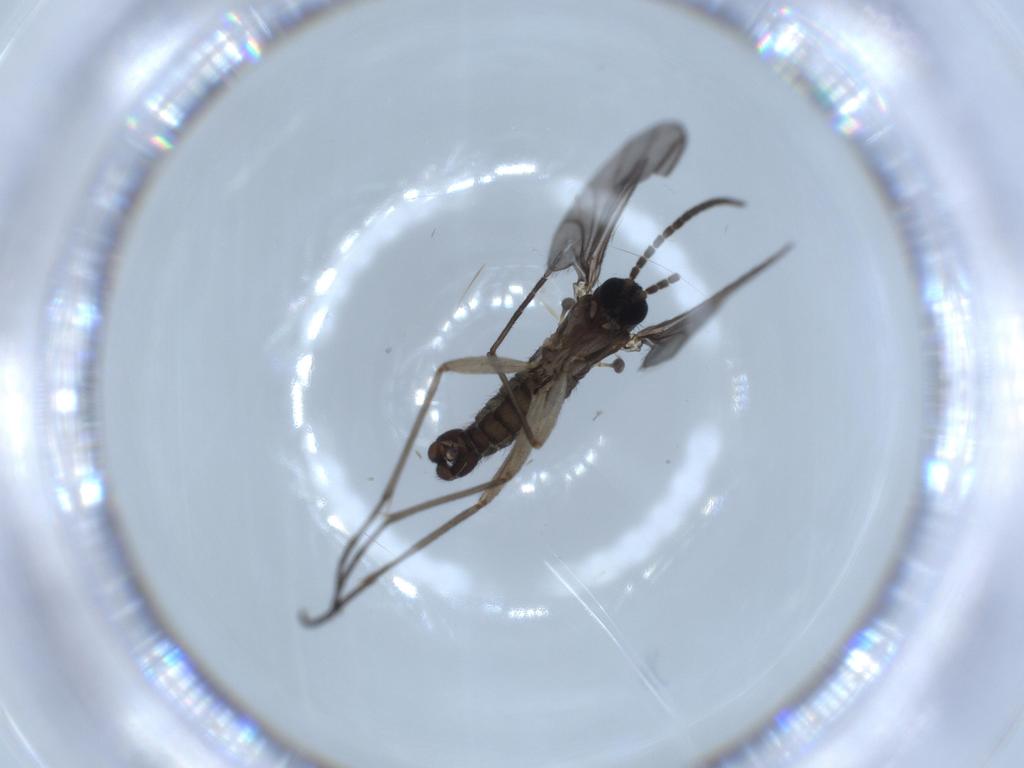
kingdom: Animalia
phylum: Arthropoda
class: Insecta
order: Diptera
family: Sciaridae
